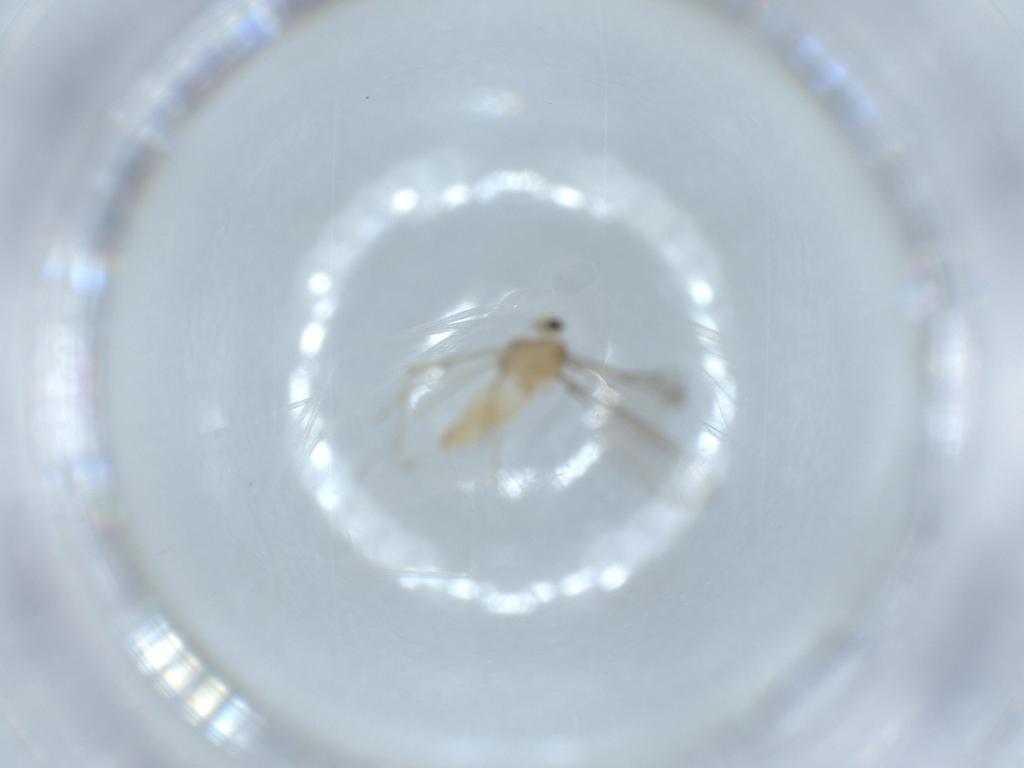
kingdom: Animalia
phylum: Arthropoda
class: Insecta
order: Diptera
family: Cecidomyiidae
